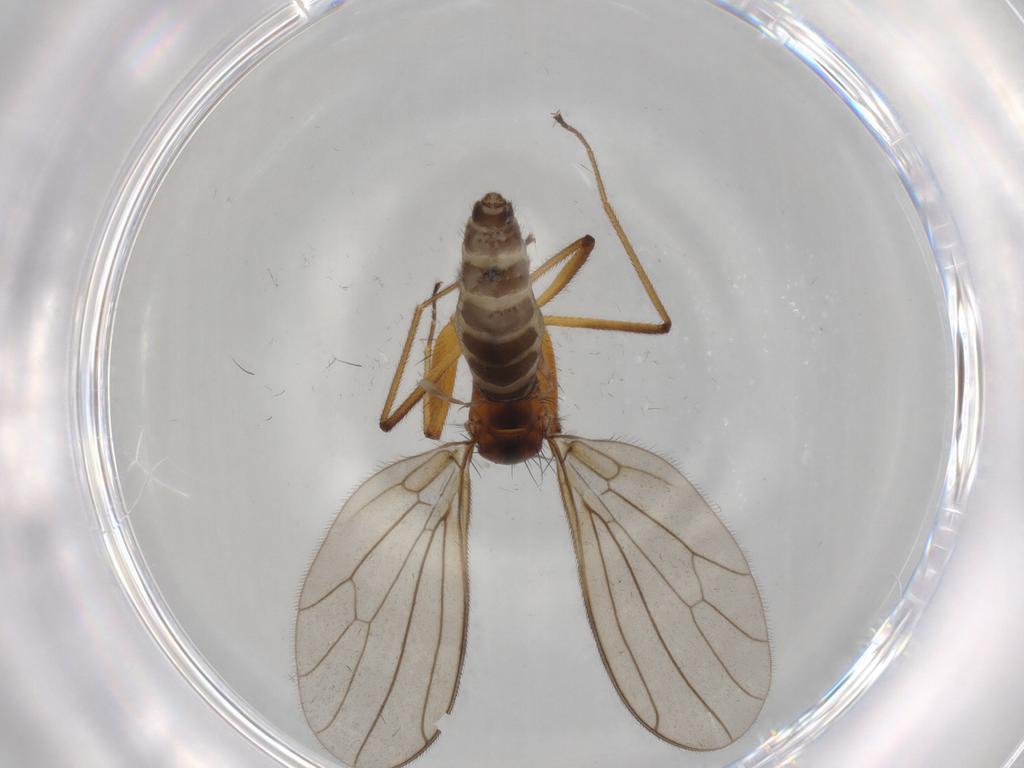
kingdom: Animalia
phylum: Arthropoda
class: Insecta
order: Diptera
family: Empididae
